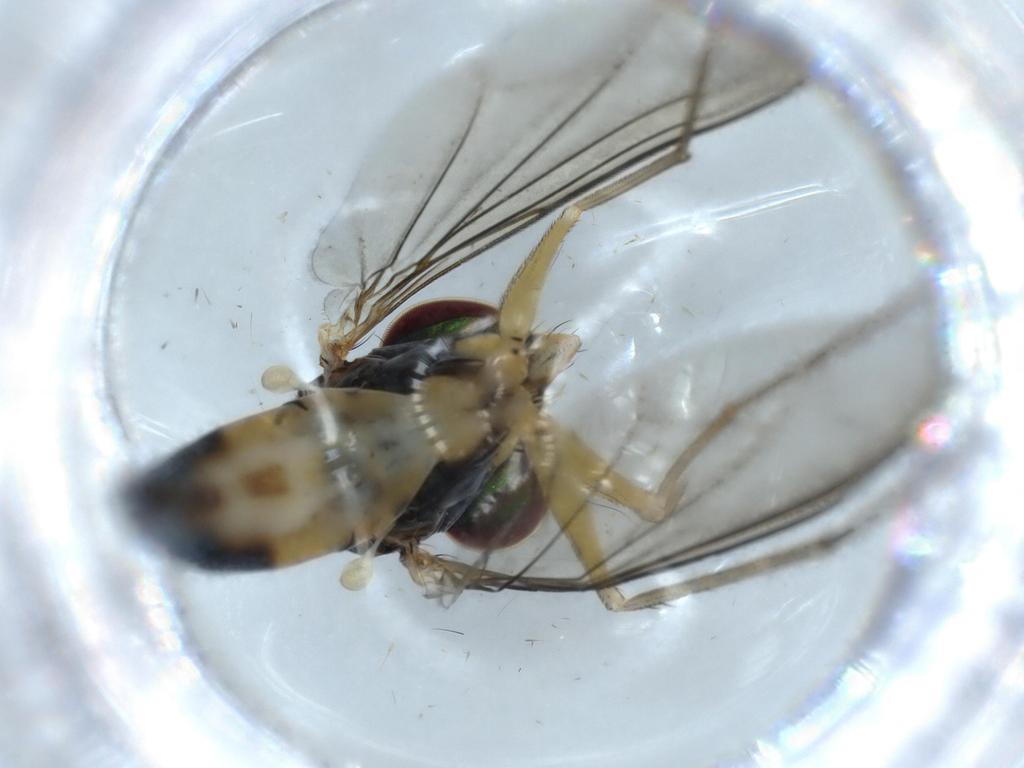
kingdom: Animalia
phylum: Arthropoda
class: Insecta
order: Diptera
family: Dolichopodidae
